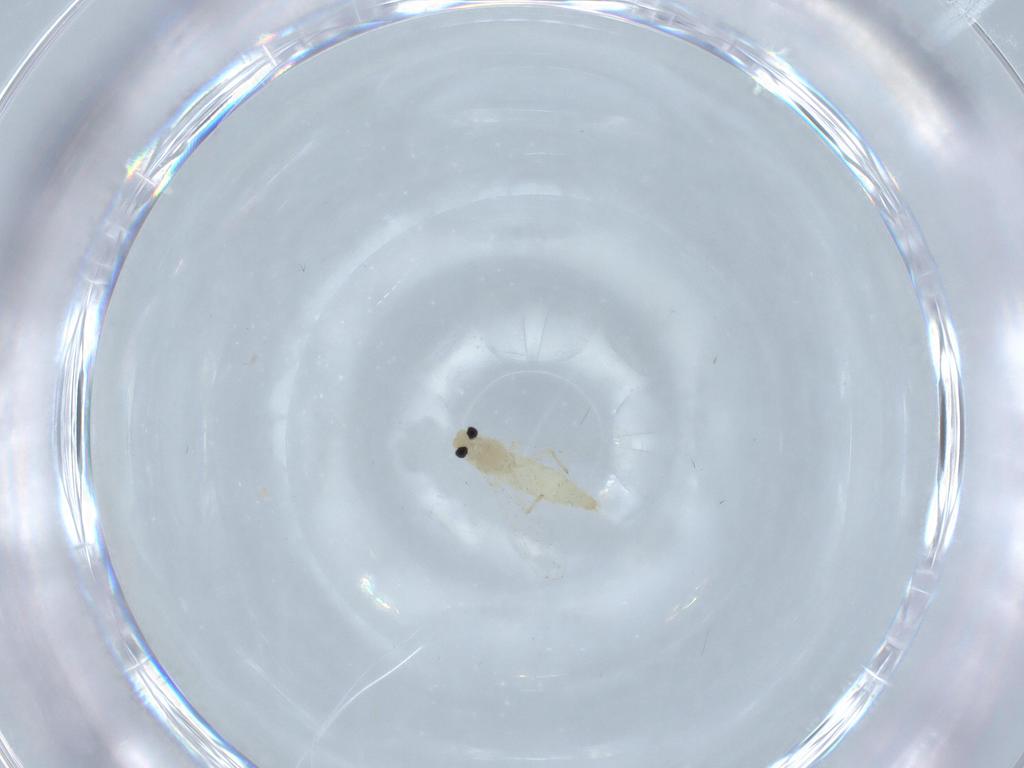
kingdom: Animalia
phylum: Arthropoda
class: Insecta
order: Diptera
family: Chironomidae
